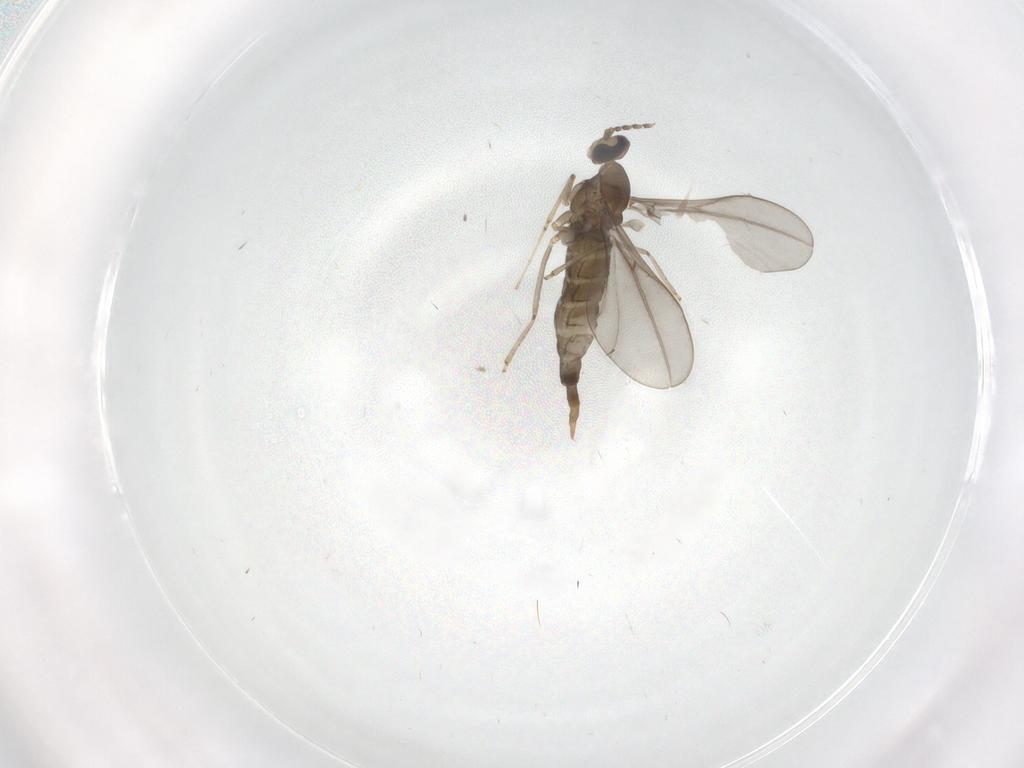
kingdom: Animalia
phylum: Arthropoda
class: Insecta
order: Diptera
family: Cecidomyiidae
